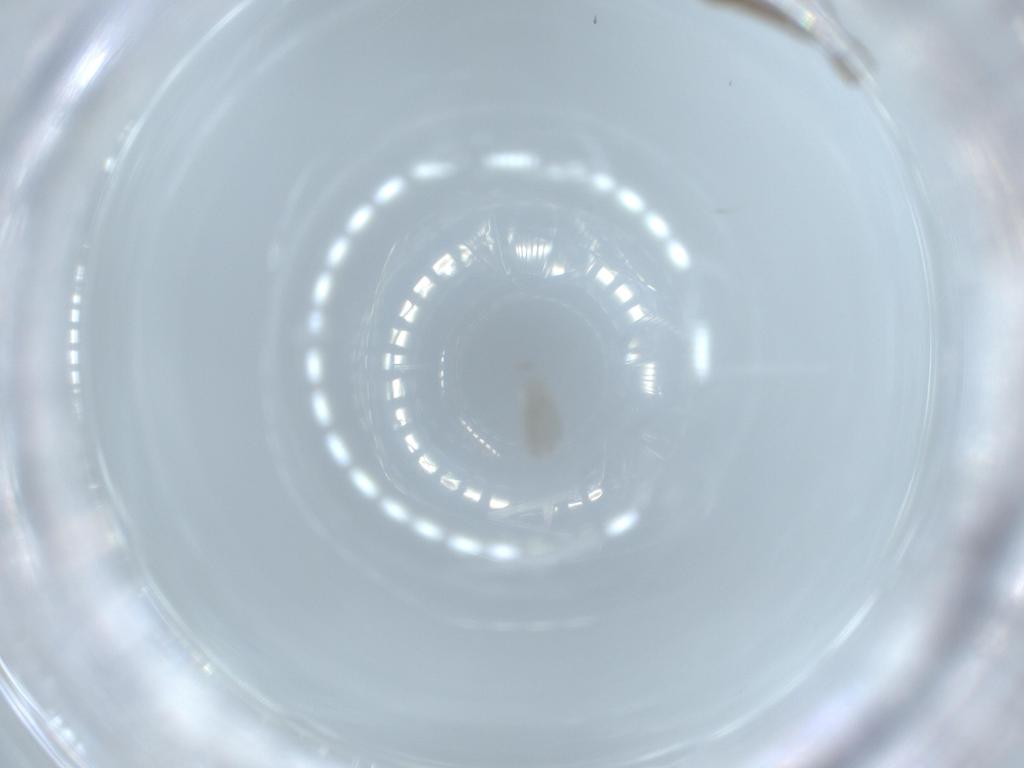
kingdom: Animalia
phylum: Arthropoda
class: Insecta
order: Diptera
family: Chironomidae
